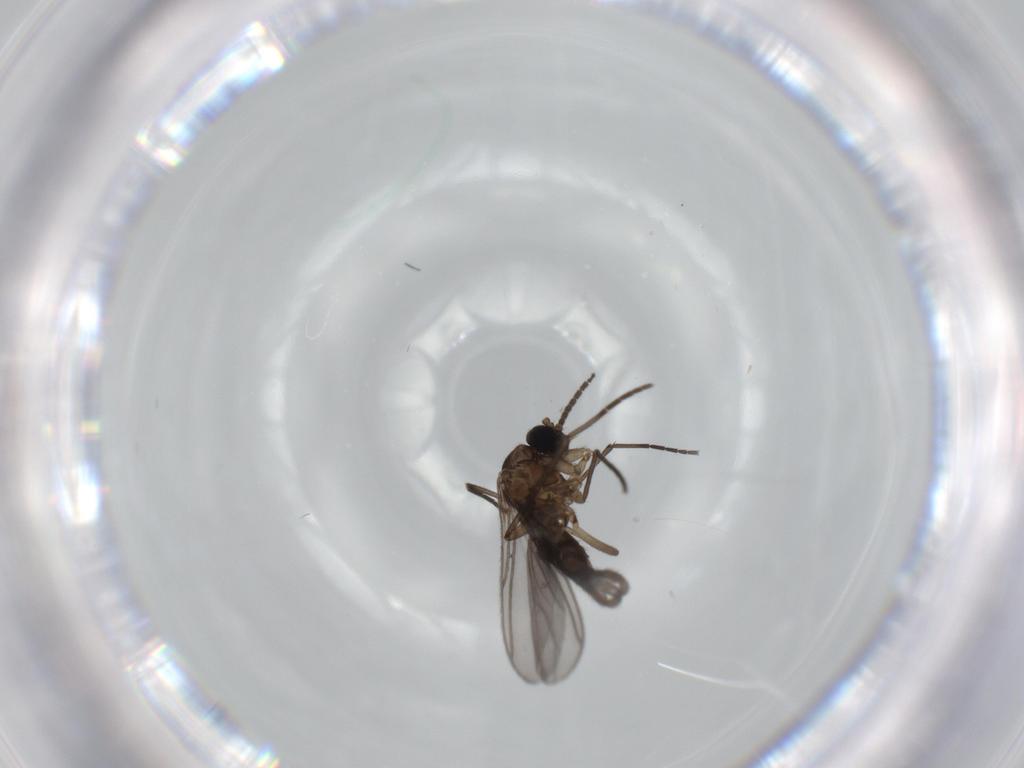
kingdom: Animalia
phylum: Arthropoda
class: Insecta
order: Diptera
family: Sciaridae
